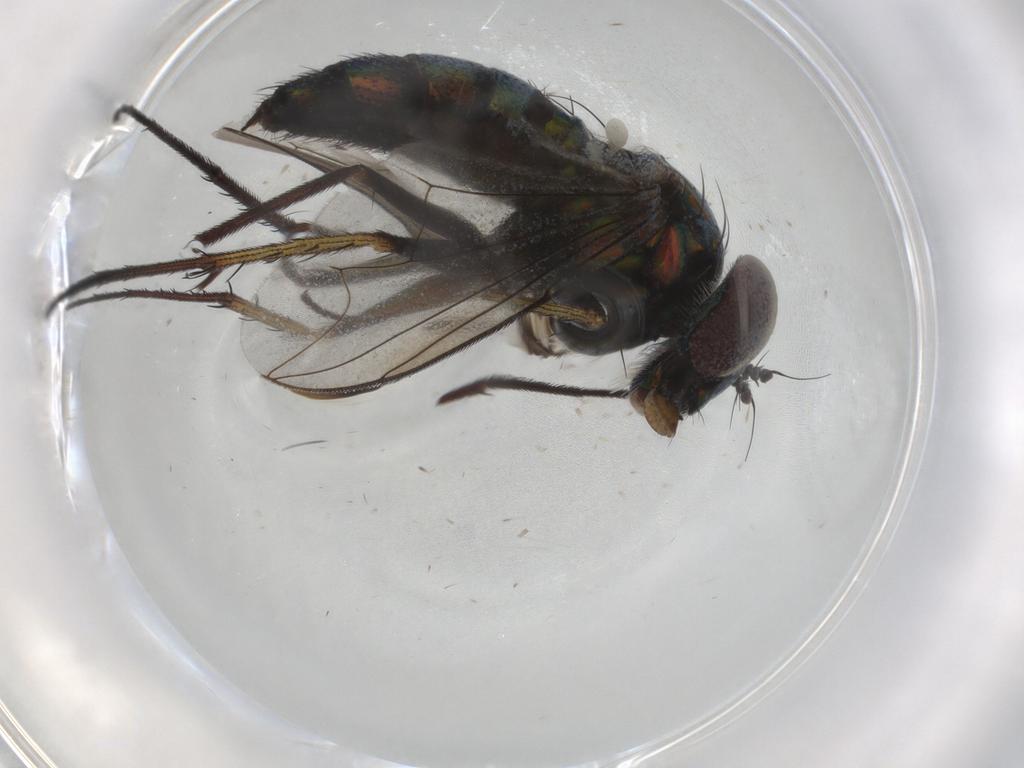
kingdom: Animalia
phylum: Arthropoda
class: Insecta
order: Diptera
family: Dolichopodidae
